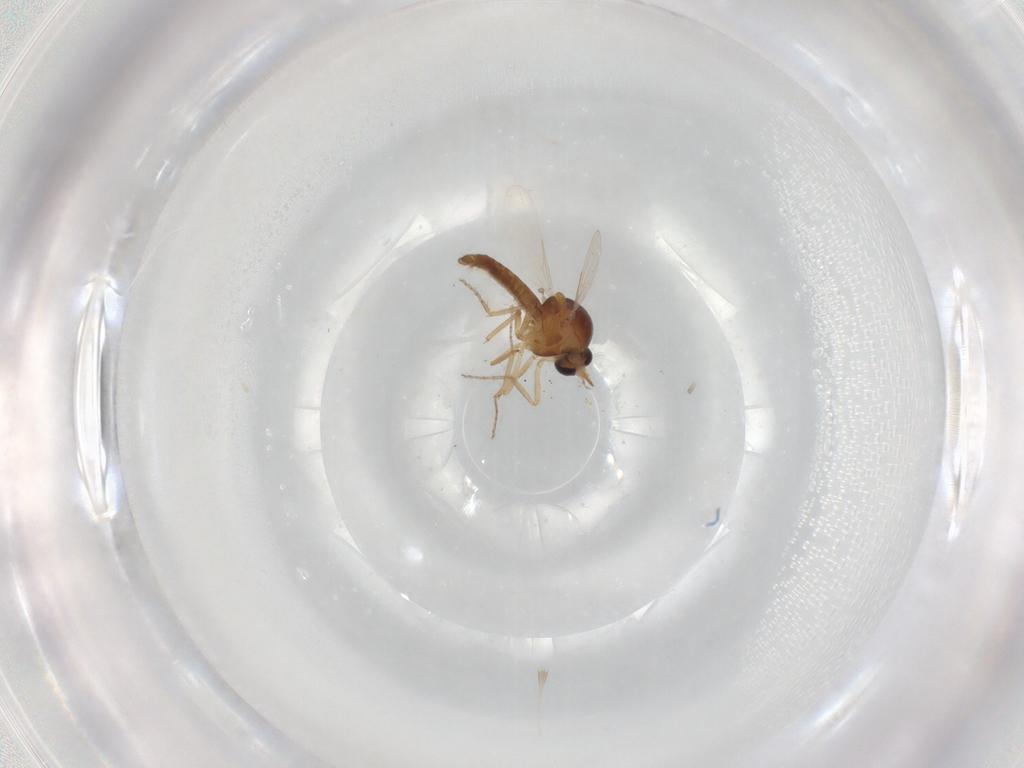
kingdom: Animalia
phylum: Arthropoda
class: Insecta
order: Diptera
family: Ceratopogonidae
